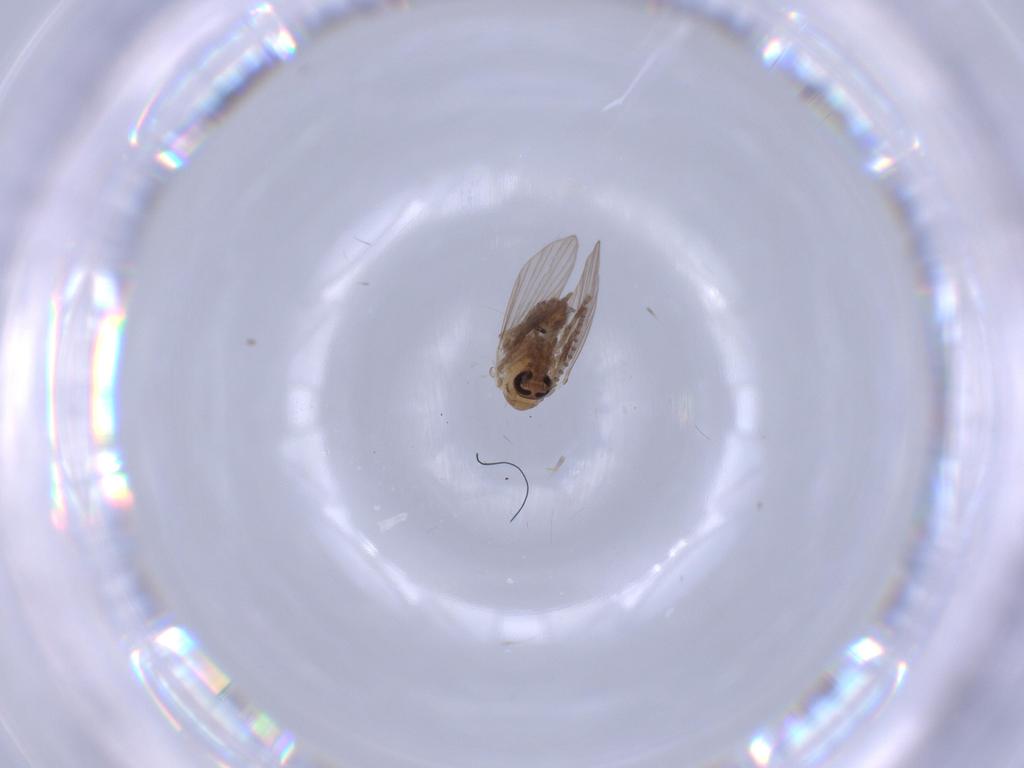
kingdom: Animalia
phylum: Arthropoda
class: Insecta
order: Diptera
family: Psychodidae
